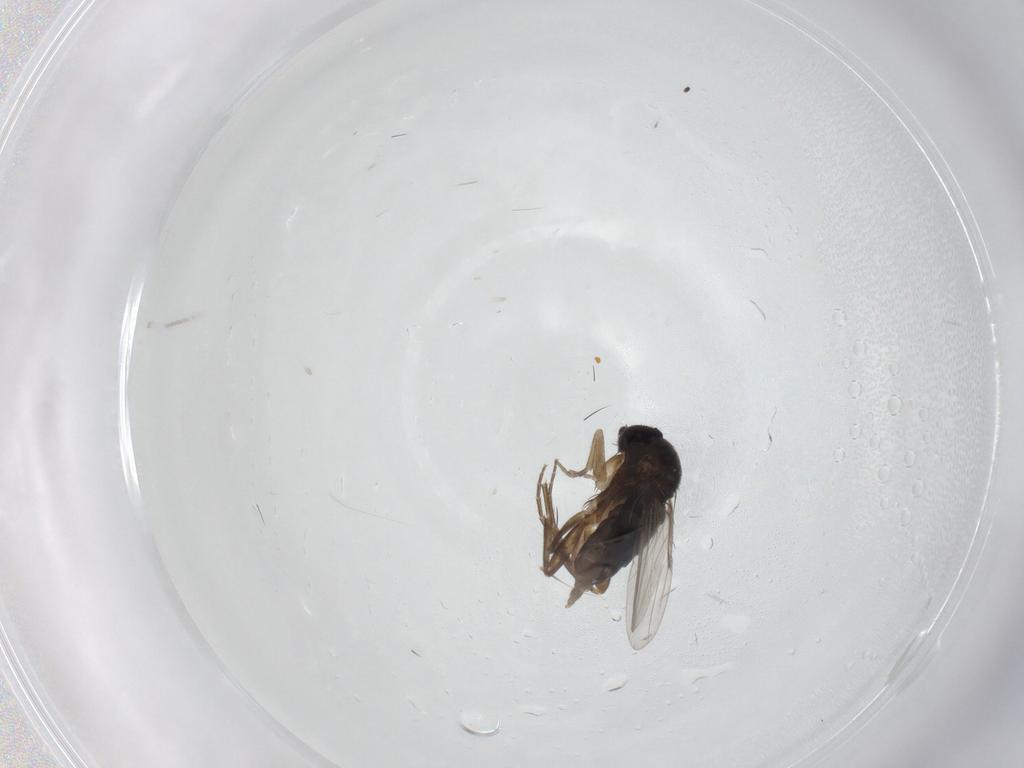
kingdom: Animalia
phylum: Arthropoda
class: Insecta
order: Diptera
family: Phoridae
